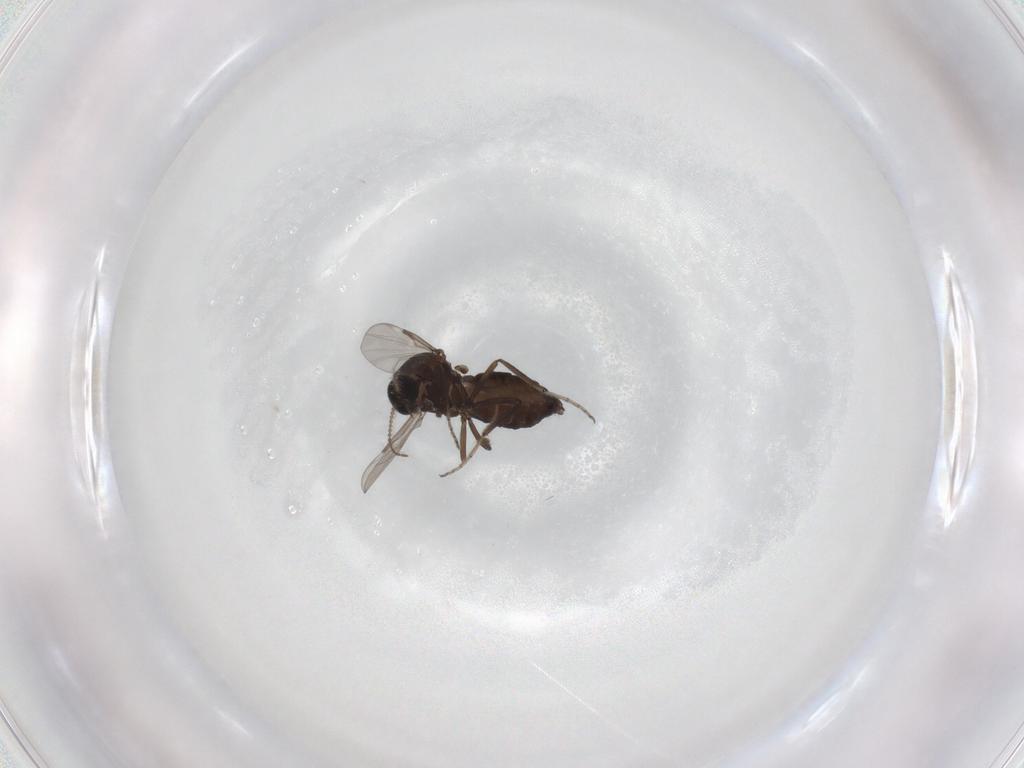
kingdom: Animalia
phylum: Arthropoda
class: Insecta
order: Diptera
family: Ceratopogonidae
